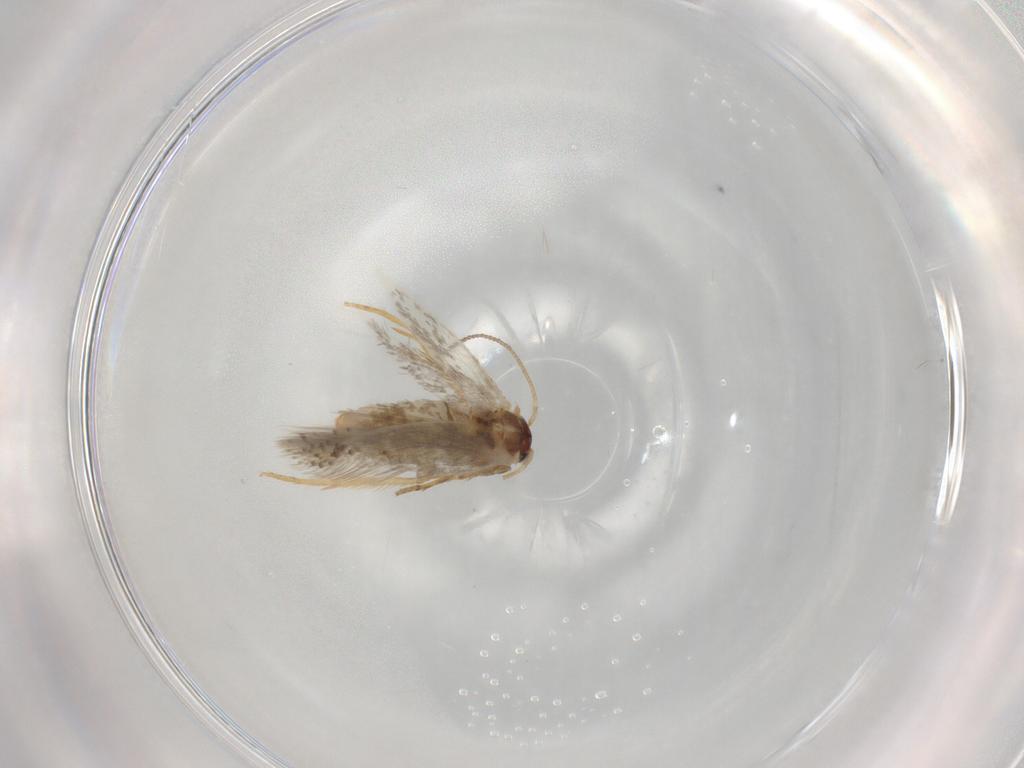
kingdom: Animalia
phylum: Arthropoda
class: Insecta
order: Lepidoptera
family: Nepticulidae
